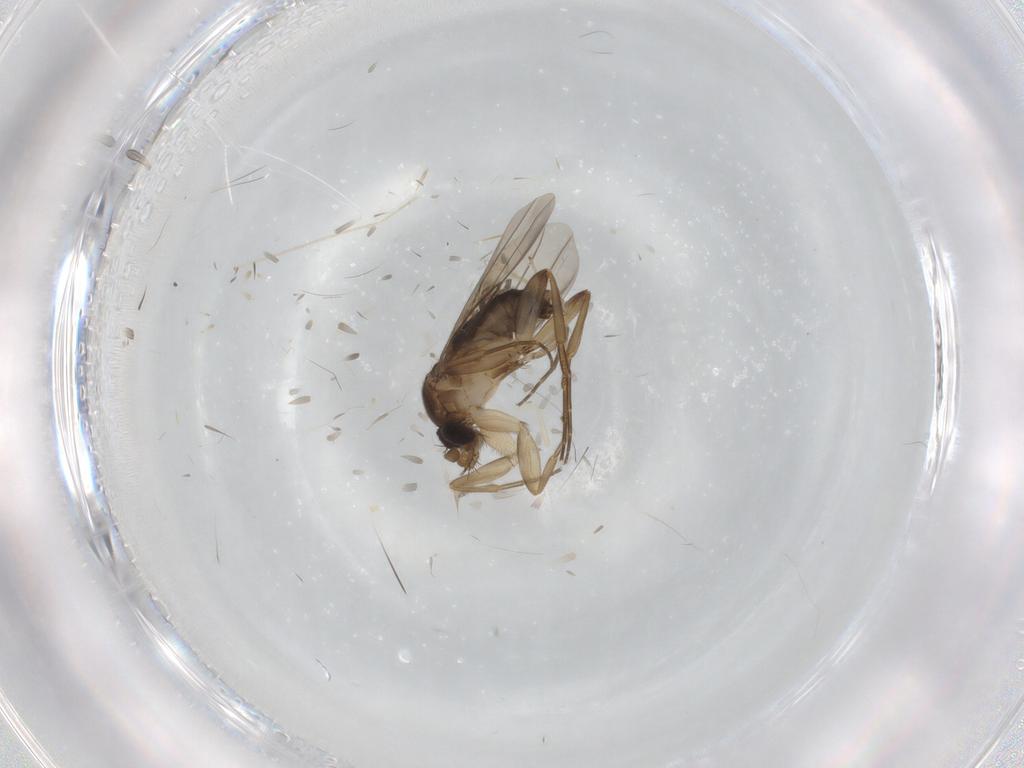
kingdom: Animalia
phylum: Arthropoda
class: Insecta
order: Diptera
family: Chironomidae
